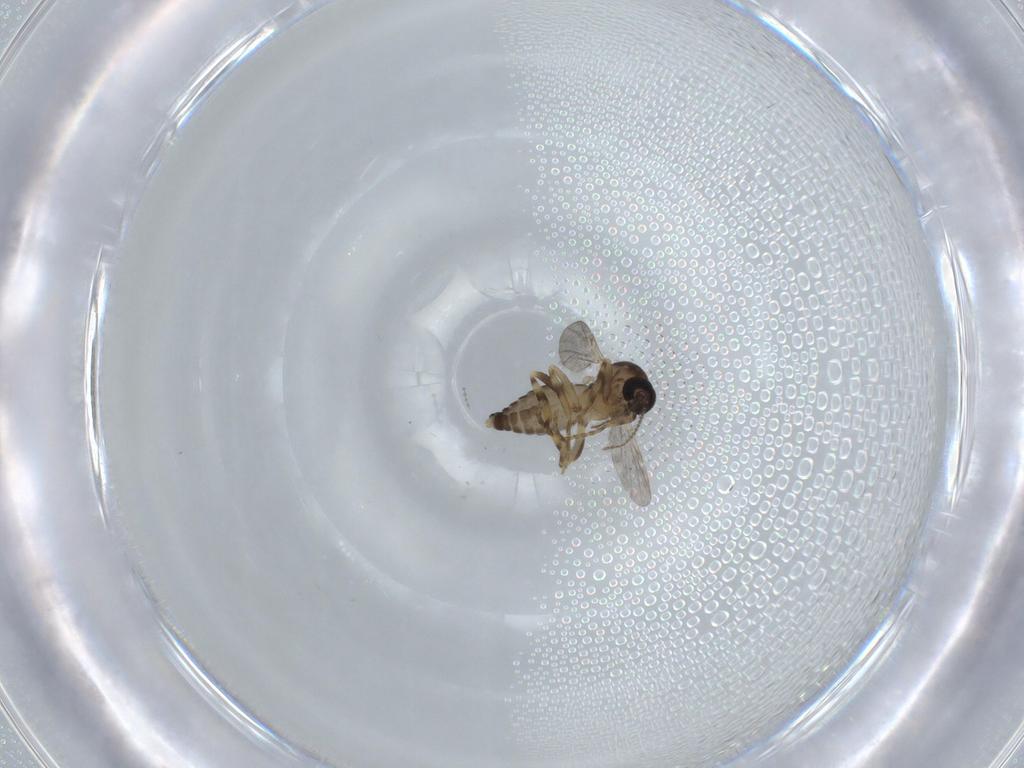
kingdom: Animalia
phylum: Arthropoda
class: Insecta
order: Diptera
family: Cecidomyiidae
